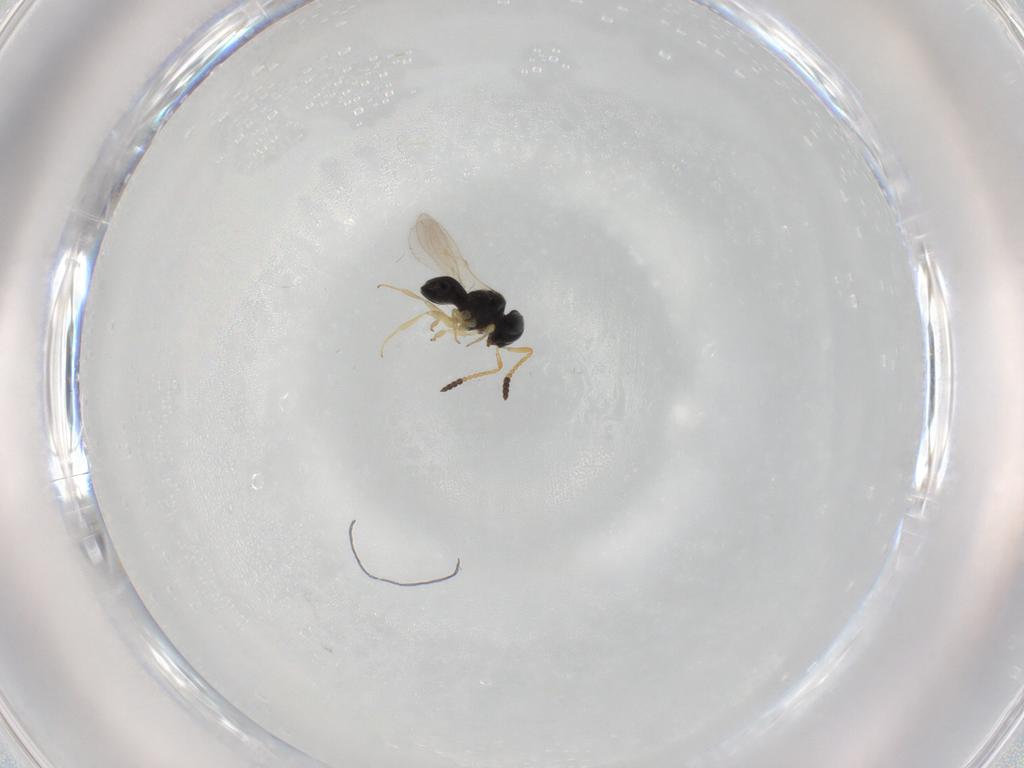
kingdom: Animalia
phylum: Arthropoda
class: Insecta
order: Hymenoptera
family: Scelionidae
